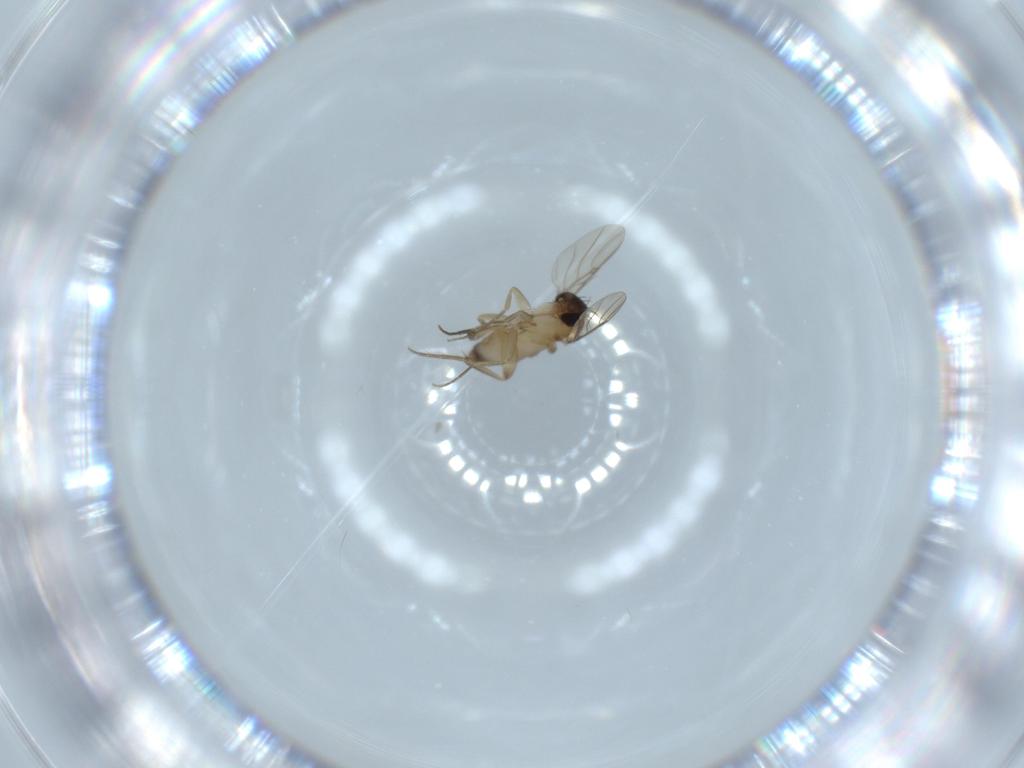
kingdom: Animalia
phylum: Arthropoda
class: Insecta
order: Diptera
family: Phoridae
